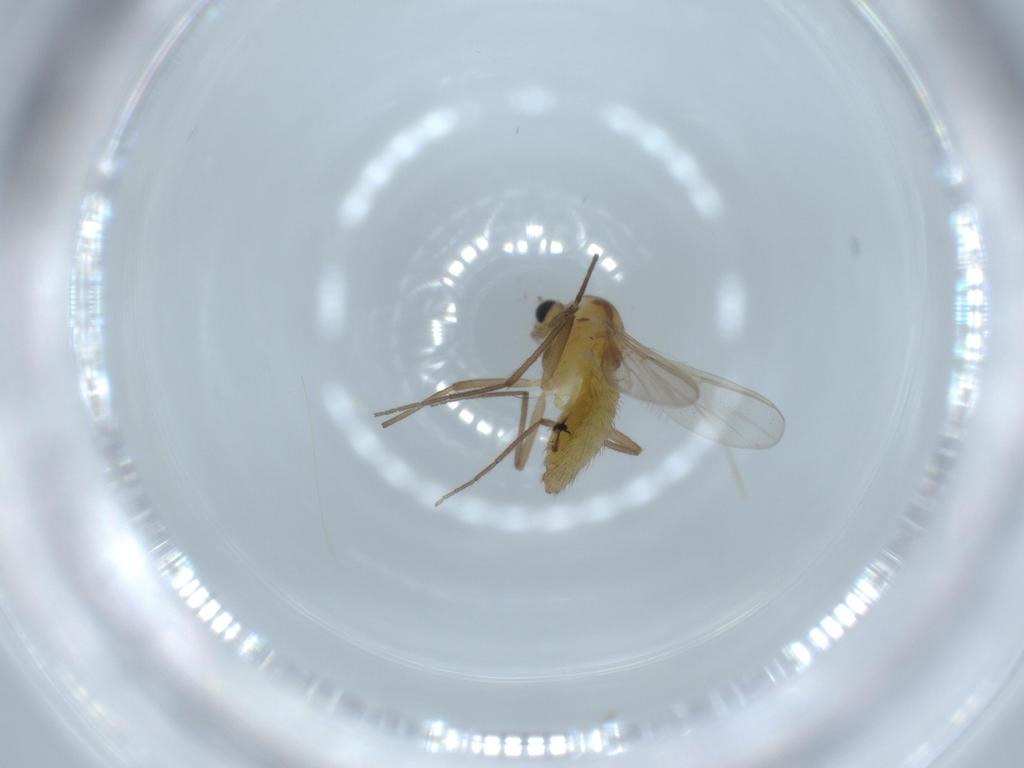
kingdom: Animalia
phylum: Arthropoda
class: Insecta
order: Diptera
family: Chironomidae
